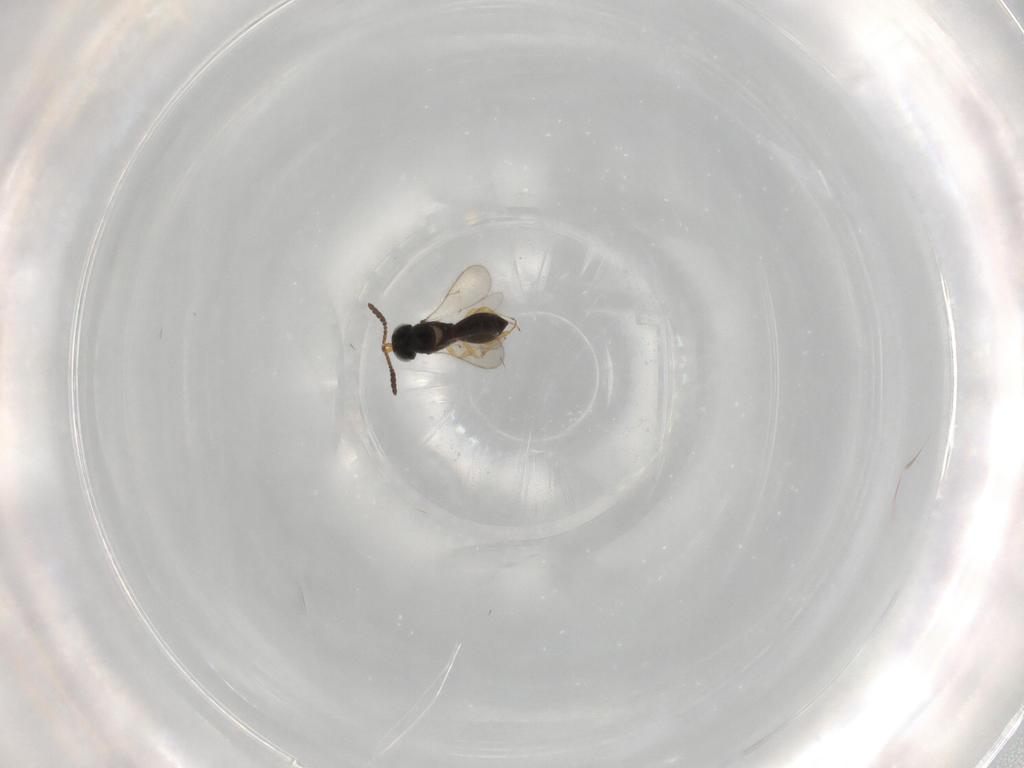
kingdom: Animalia
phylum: Arthropoda
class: Insecta
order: Hymenoptera
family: Scelionidae
